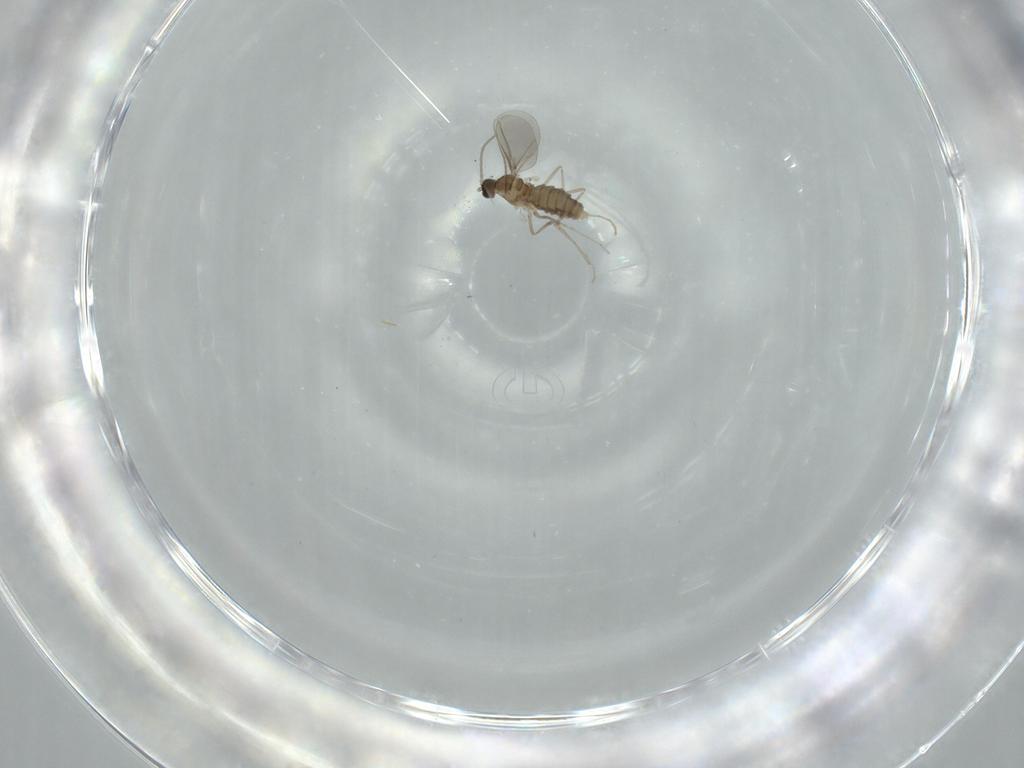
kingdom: Animalia
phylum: Arthropoda
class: Insecta
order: Diptera
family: Cecidomyiidae
